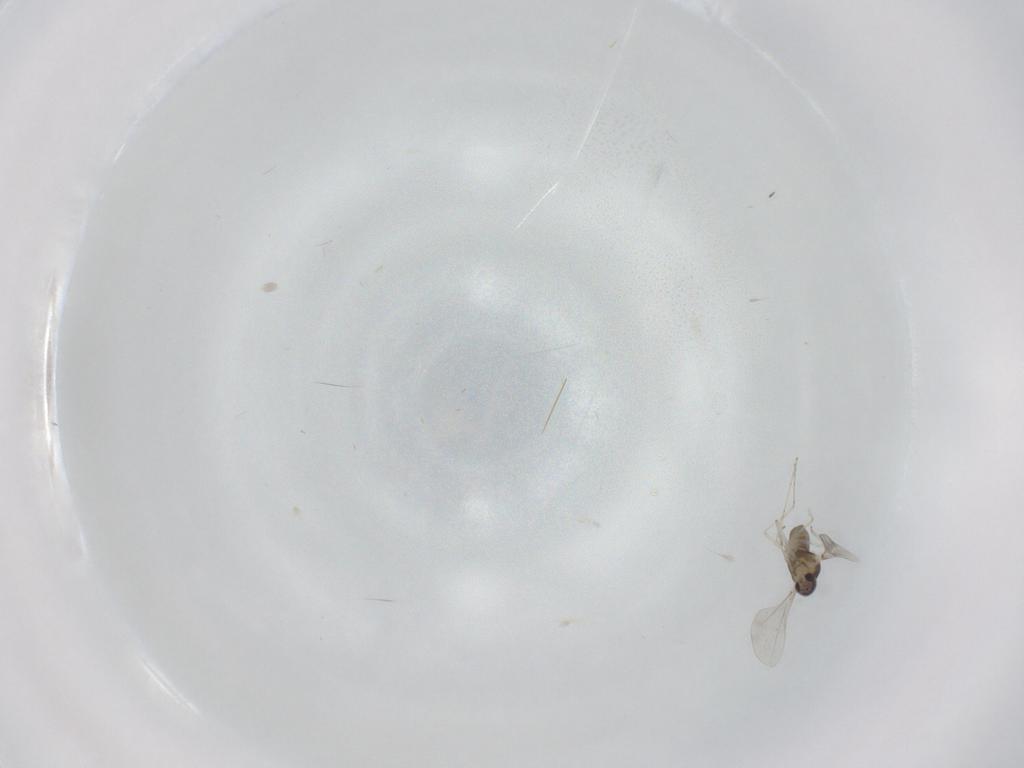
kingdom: Animalia
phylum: Arthropoda
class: Insecta
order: Diptera
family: Cecidomyiidae
